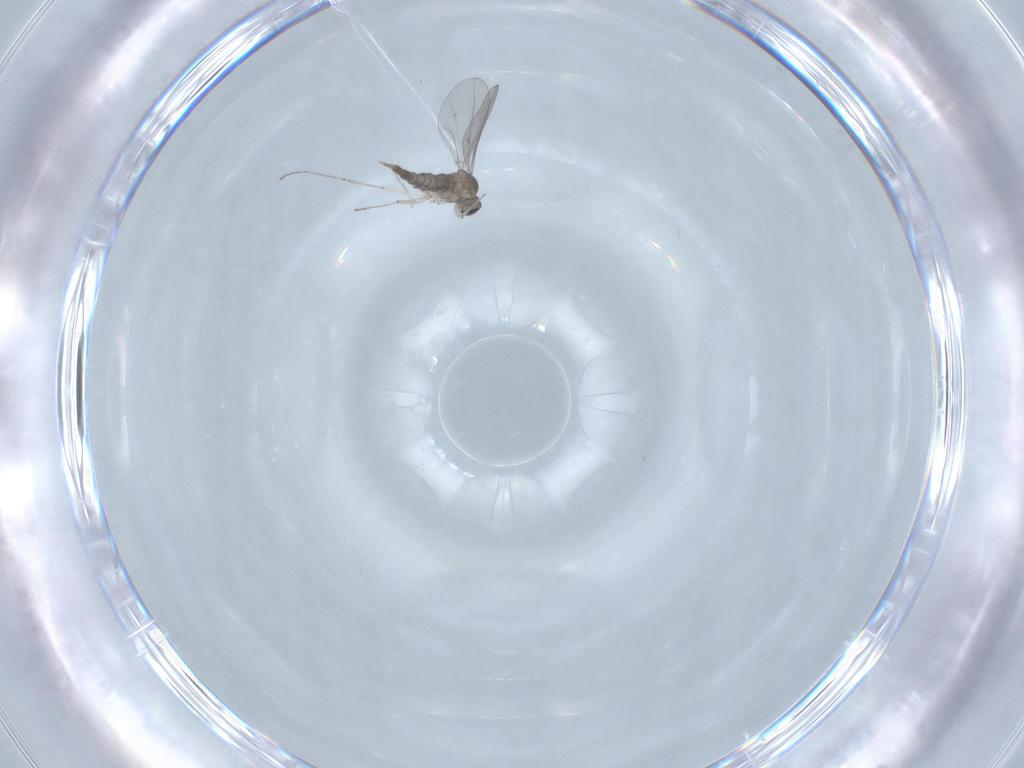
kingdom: Animalia
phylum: Arthropoda
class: Insecta
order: Diptera
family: Cecidomyiidae
